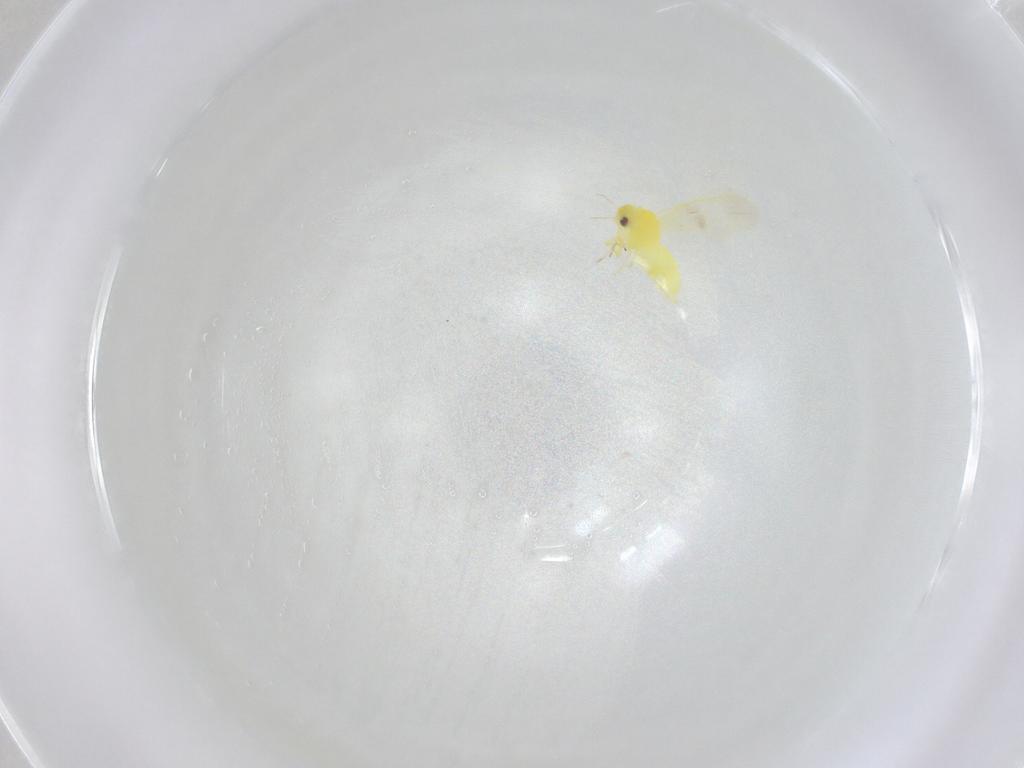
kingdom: Animalia
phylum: Arthropoda
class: Insecta
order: Hemiptera
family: Aleyrodidae
